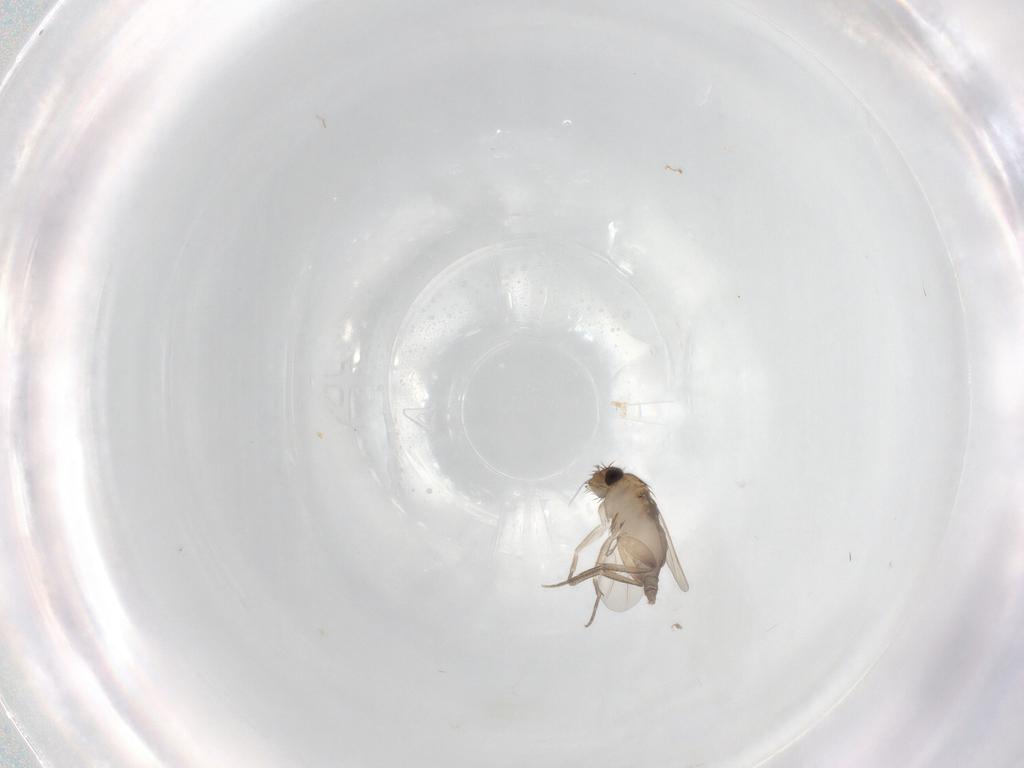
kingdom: Animalia
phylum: Arthropoda
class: Insecta
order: Diptera
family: Phoridae
